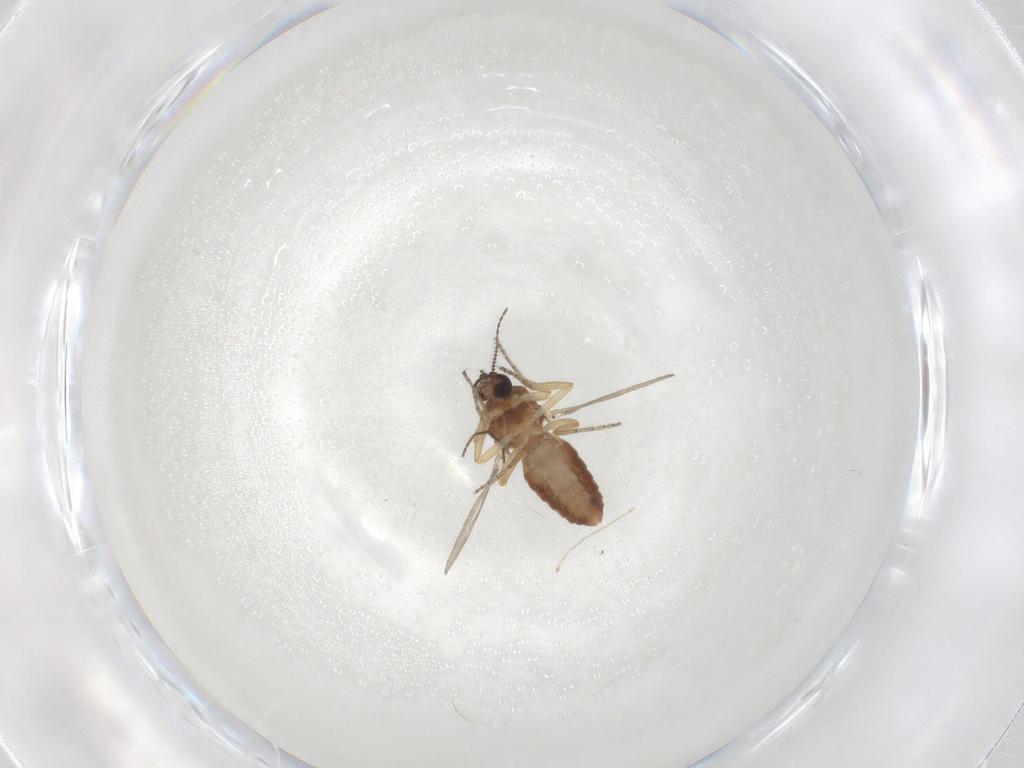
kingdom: Animalia
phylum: Arthropoda
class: Insecta
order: Diptera
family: Ceratopogonidae
